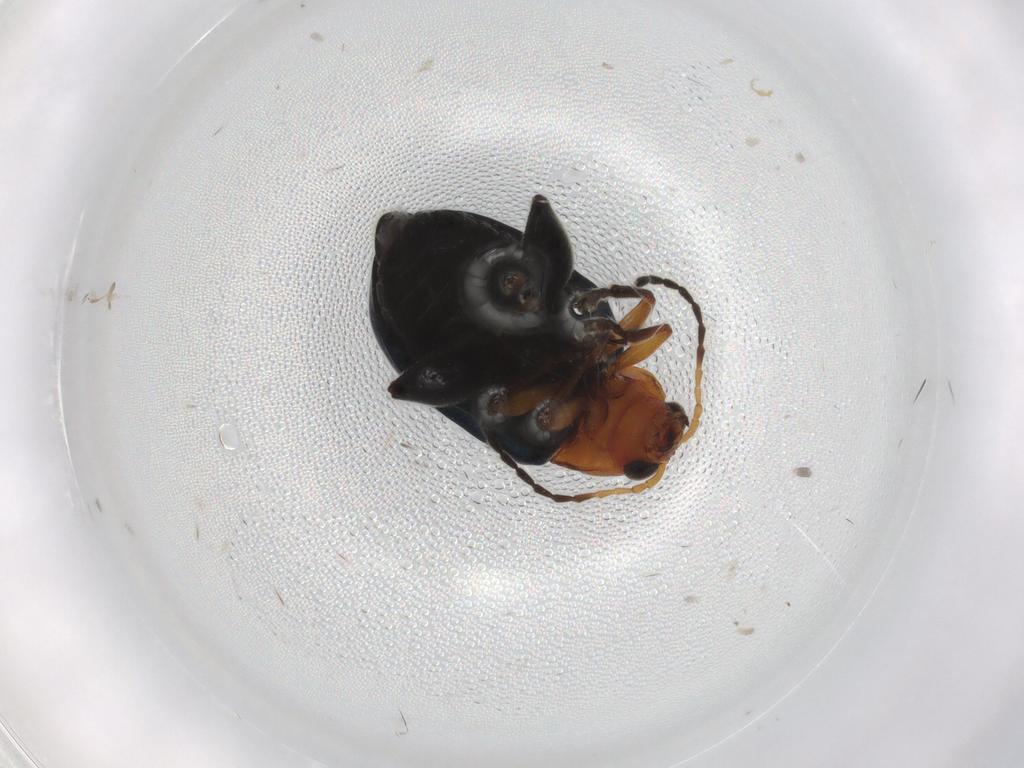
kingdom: Animalia
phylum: Arthropoda
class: Insecta
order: Coleoptera
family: Chrysomelidae
